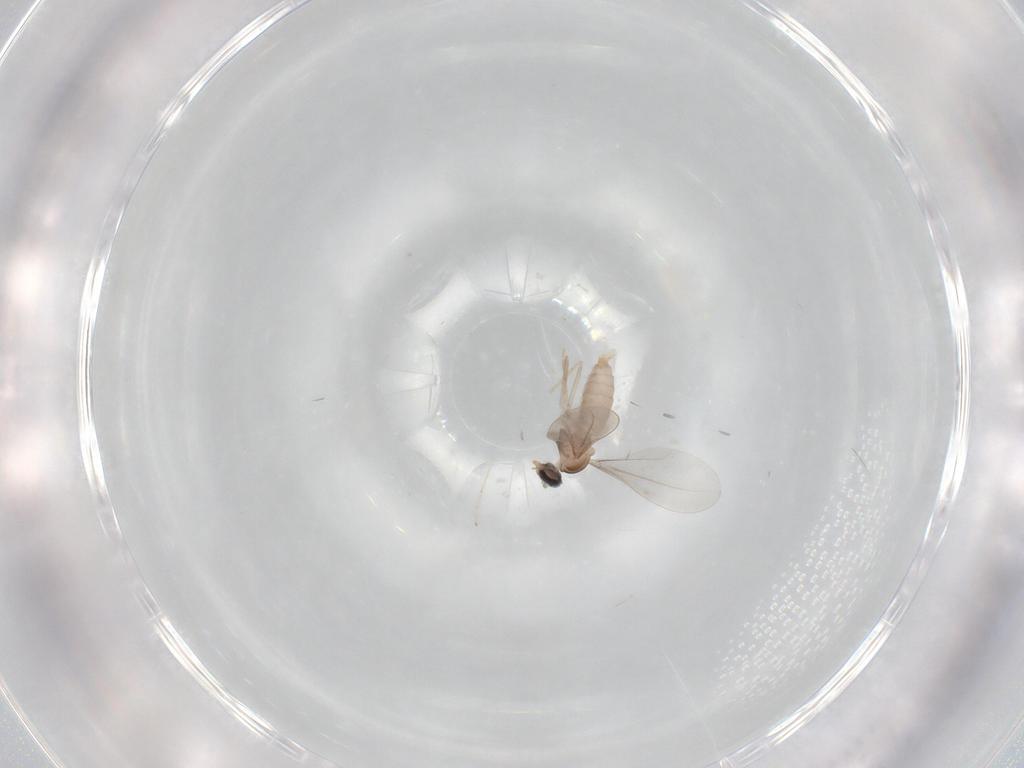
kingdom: Animalia
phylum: Arthropoda
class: Insecta
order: Diptera
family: Cecidomyiidae
